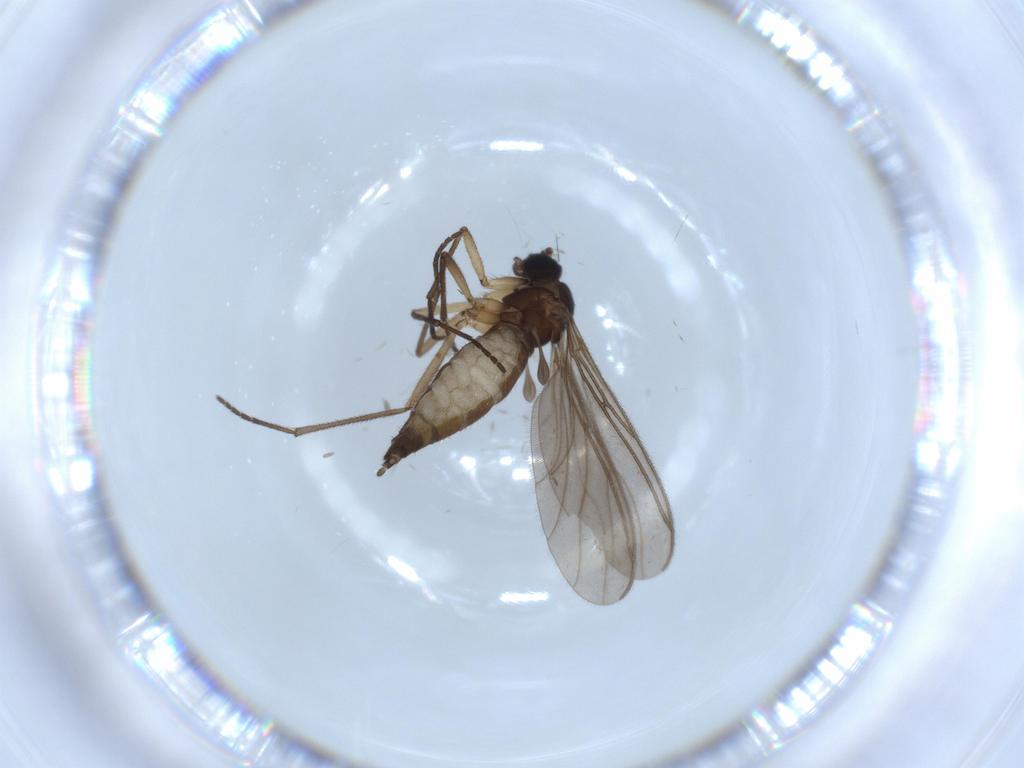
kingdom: Animalia
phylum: Arthropoda
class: Insecta
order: Diptera
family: Sciaridae
